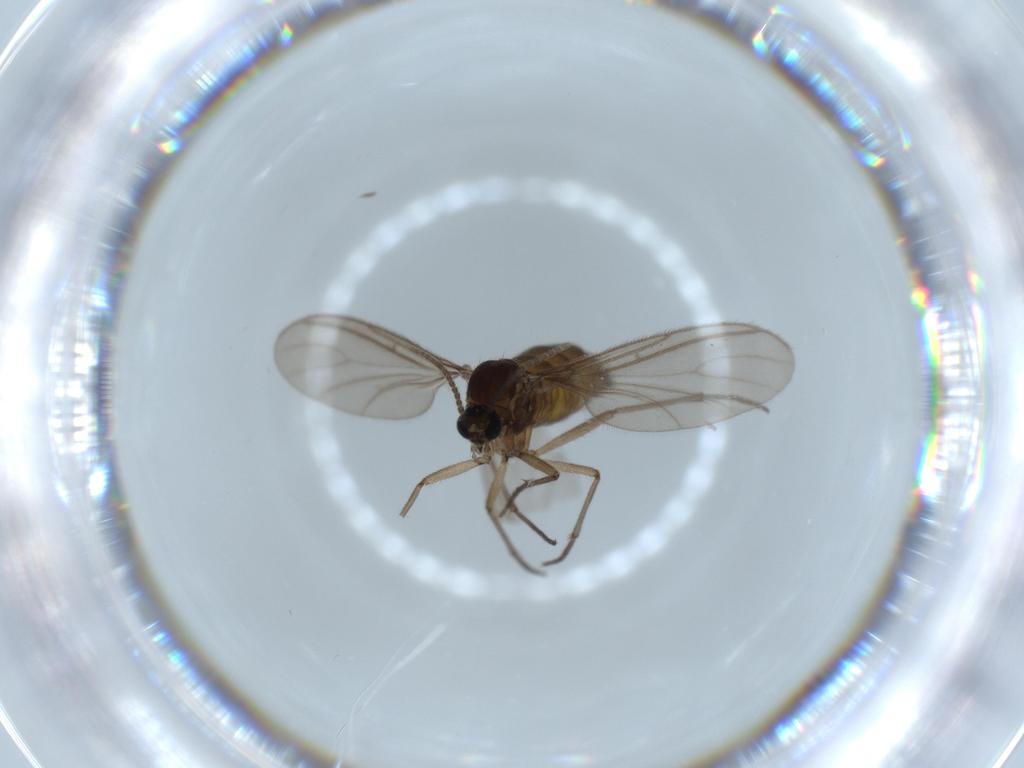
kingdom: Animalia
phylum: Arthropoda
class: Insecta
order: Diptera
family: Sciaridae
